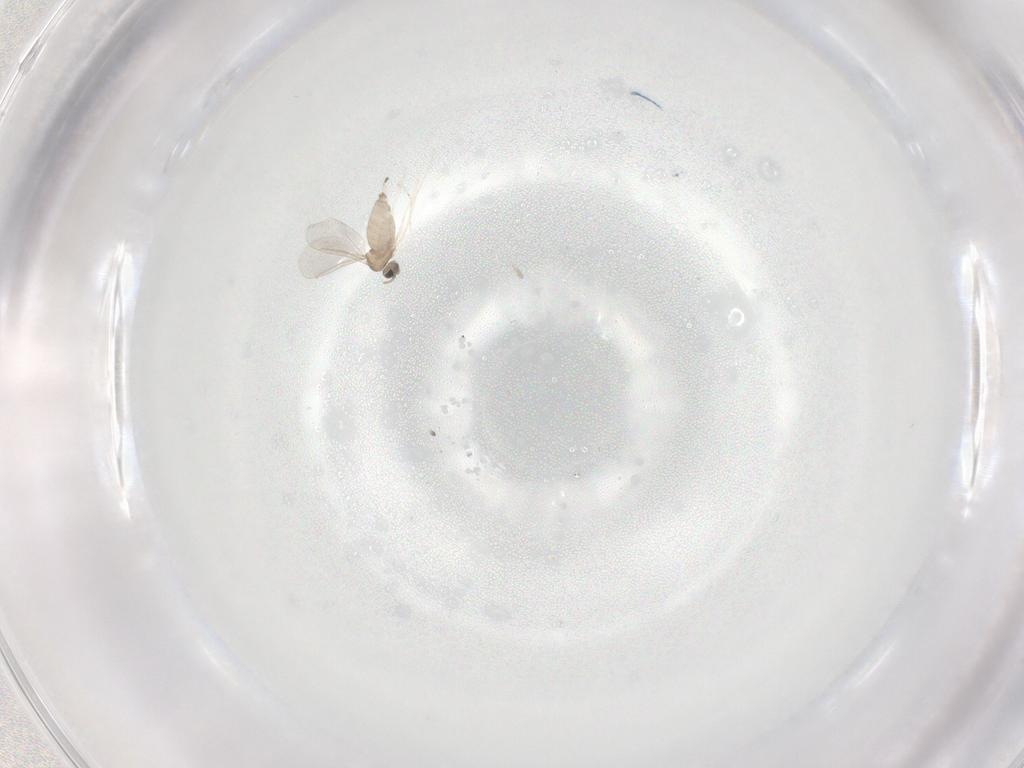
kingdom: Animalia
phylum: Arthropoda
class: Insecta
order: Diptera
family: Cecidomyiidae
